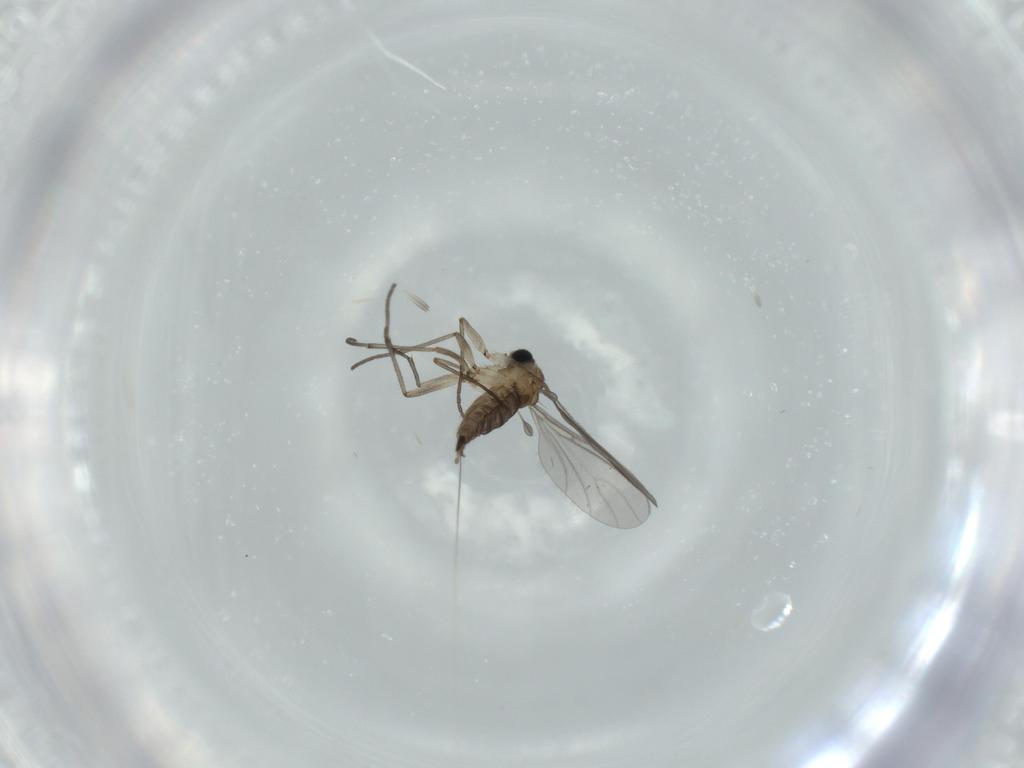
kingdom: Animalia
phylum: Arthropoda
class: Insecta
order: Diptera
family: Sciaridae
